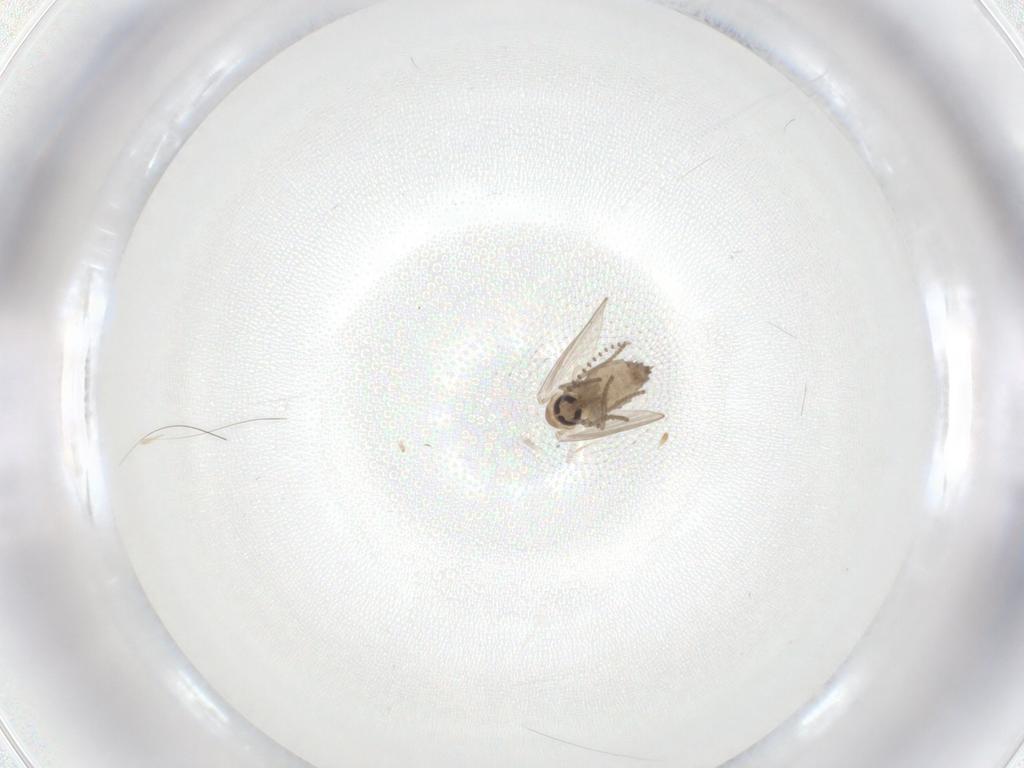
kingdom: Animalia
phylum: Arthropoda
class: Insecta
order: Diptera
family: Psychodidae
